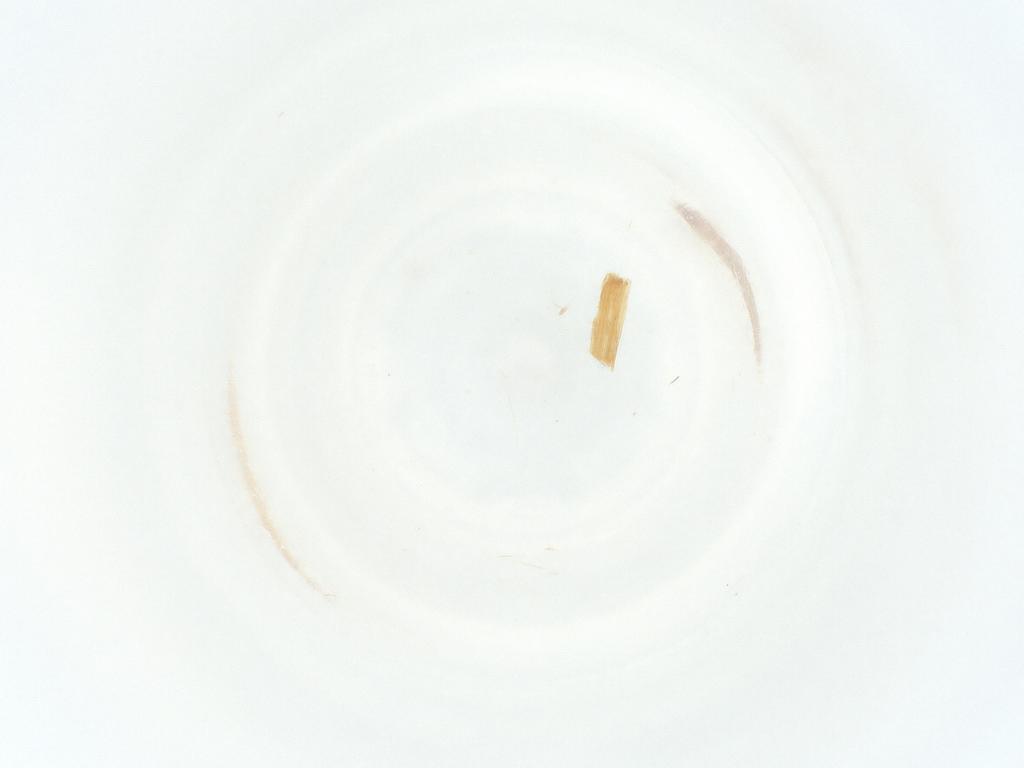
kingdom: Animalia
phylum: Arthropoda
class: Insecta
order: Hymenoptera
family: Trichogrammatidae
